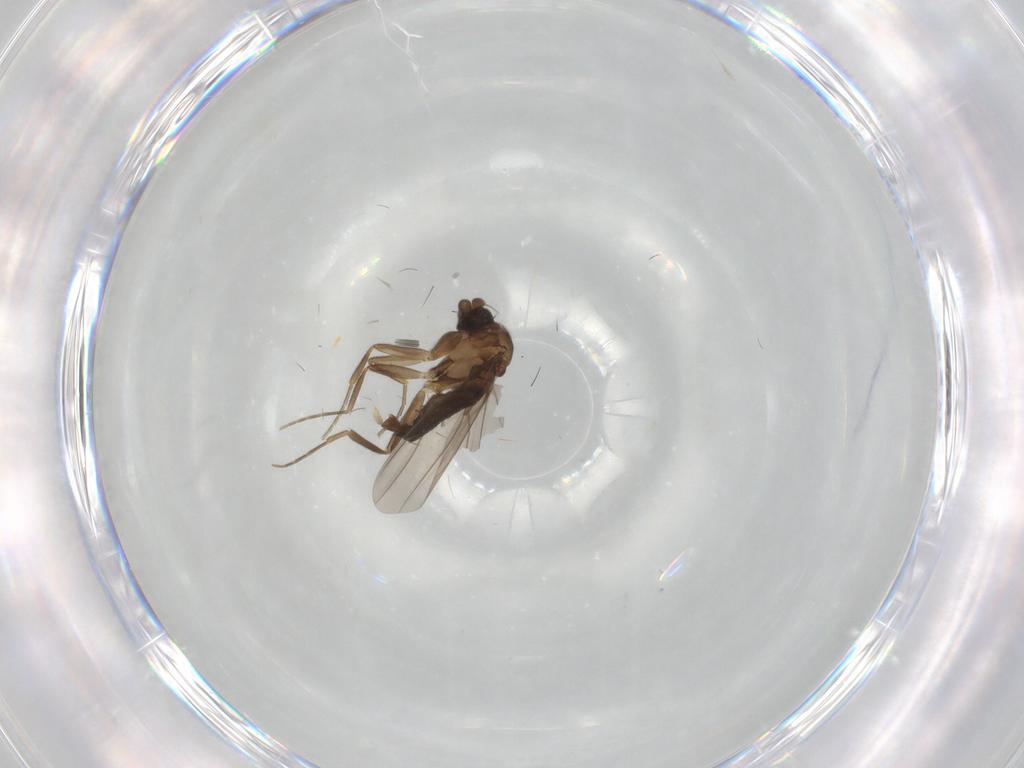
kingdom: Animalia
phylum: Arthropoda
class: Insecta
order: Diptera
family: Phoridae
